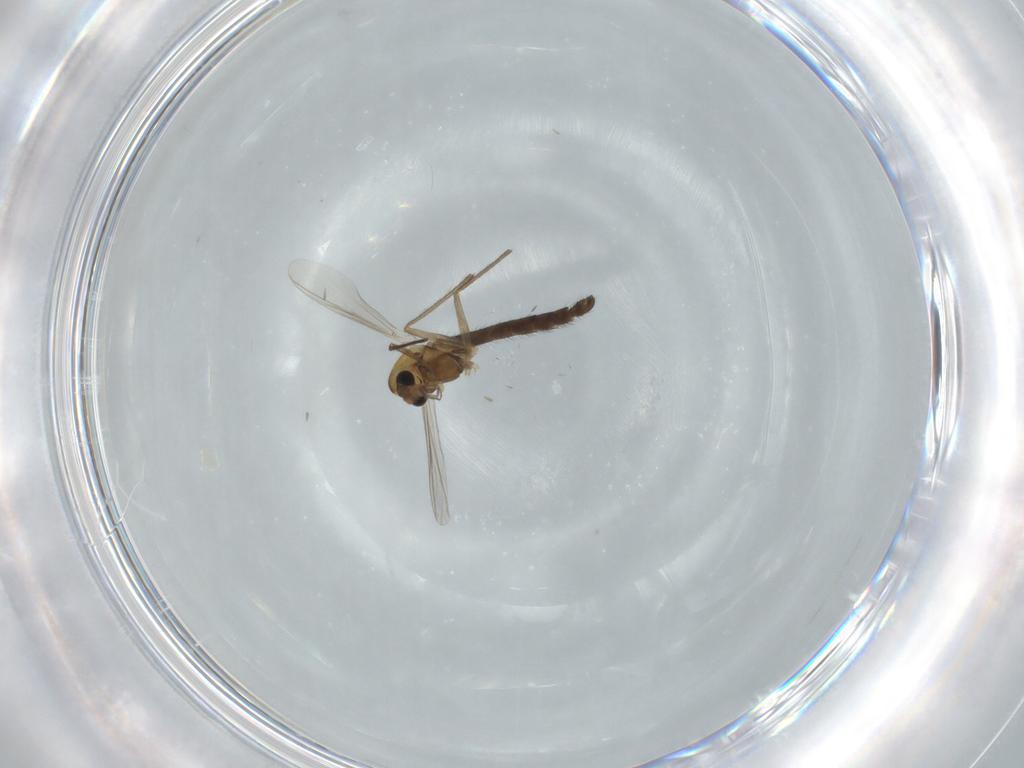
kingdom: Animalia
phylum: Arthropoda
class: Insecta
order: Diptera
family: Chironomidae
